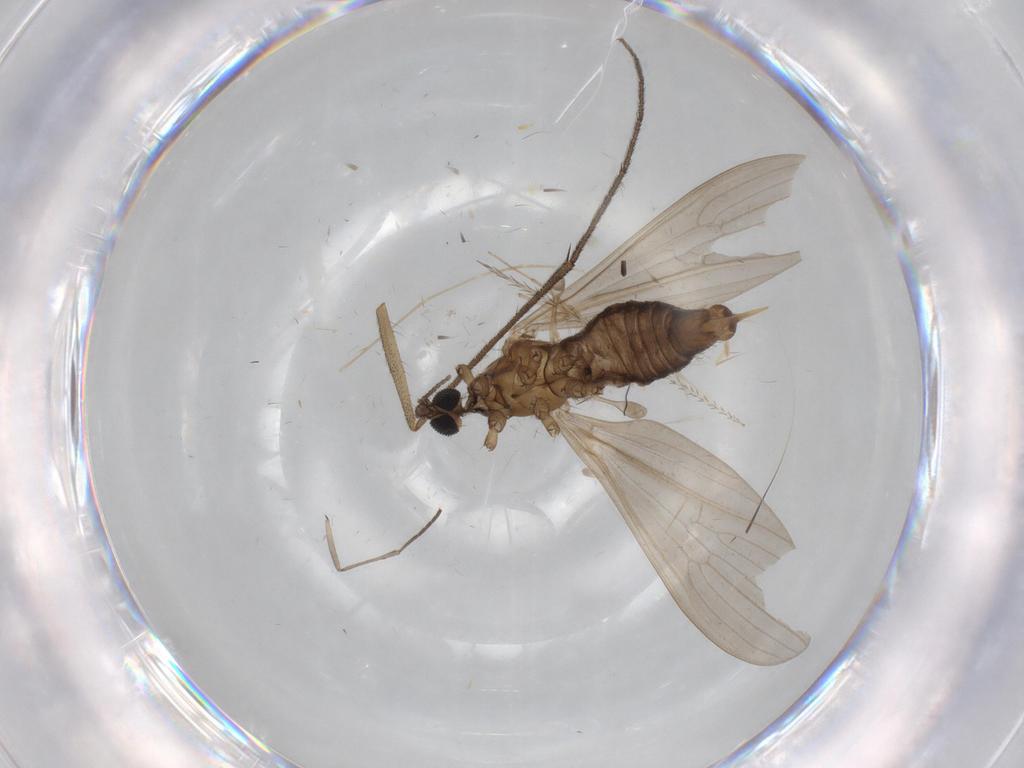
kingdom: Animalia
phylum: Arthropoda
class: Insecta
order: Diptera
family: Limoniidae
